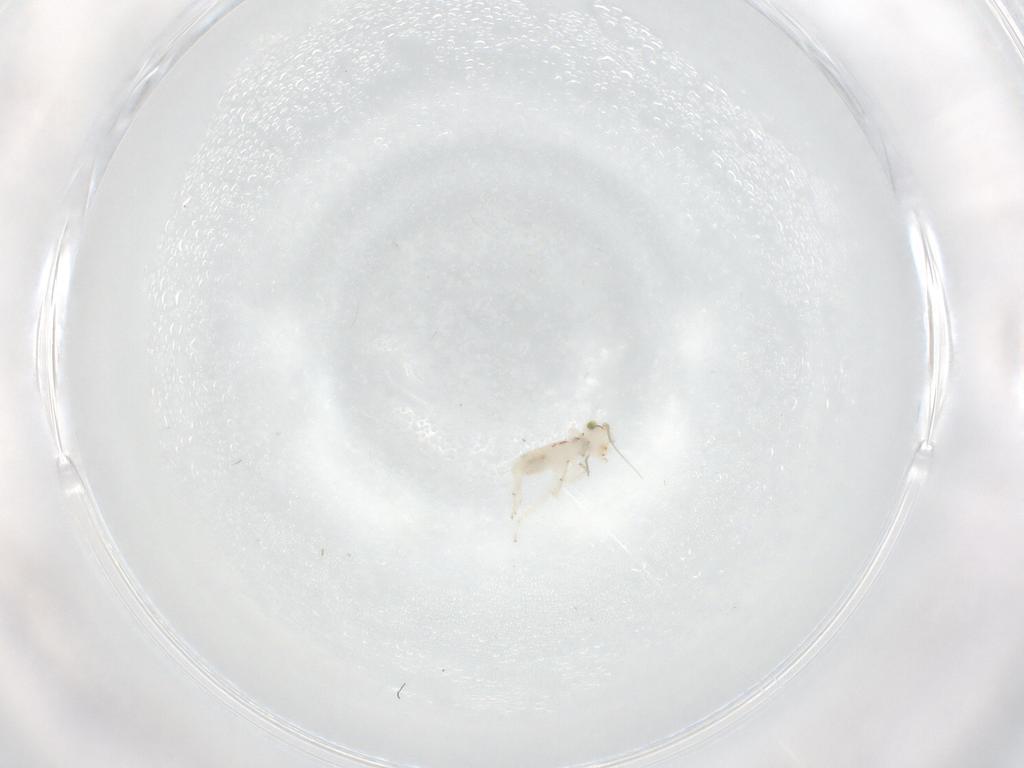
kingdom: Animalia
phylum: Arthropoda
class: Insecta
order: Psocodea
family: Lepidopsocidae
